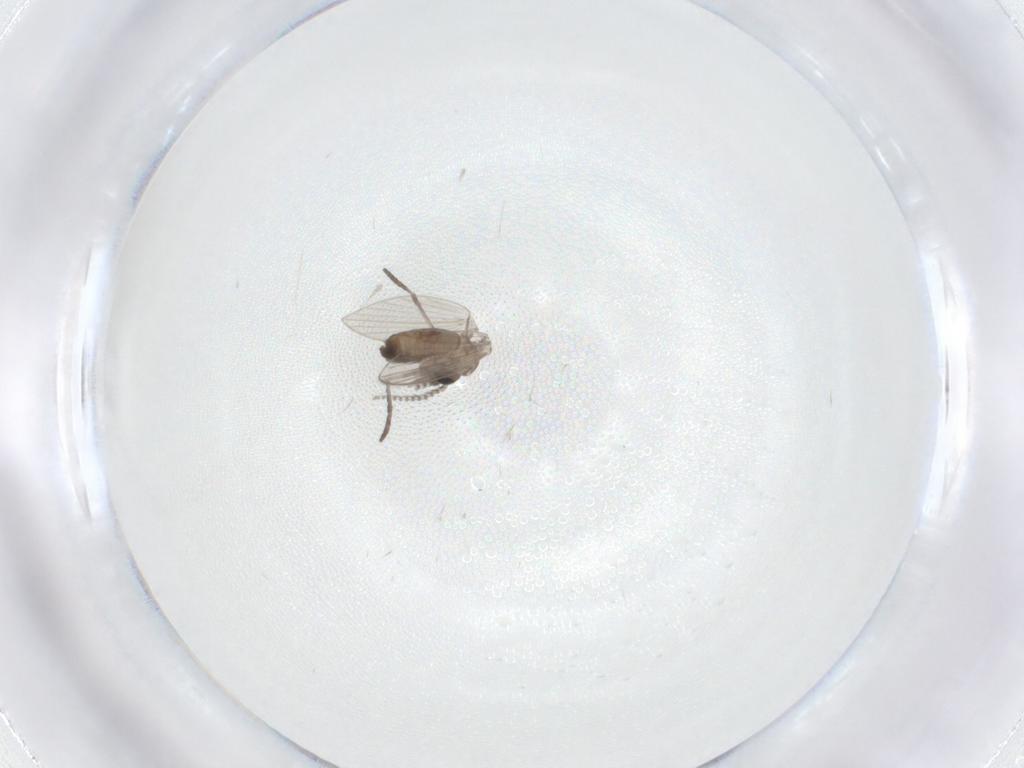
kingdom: Animalia
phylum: Arthropoda
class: Insecta
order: Diptera
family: Psychodidae
